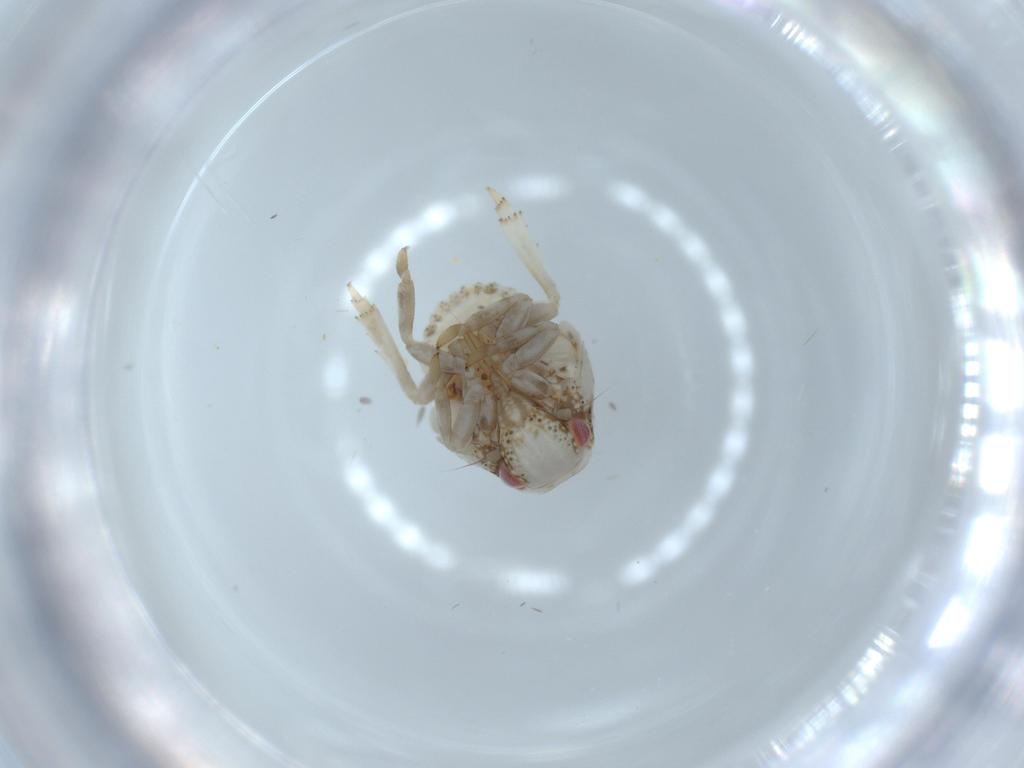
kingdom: Animalia
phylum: Arthropoda
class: Insecta
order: Hemiptera
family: Acanaloniidae
